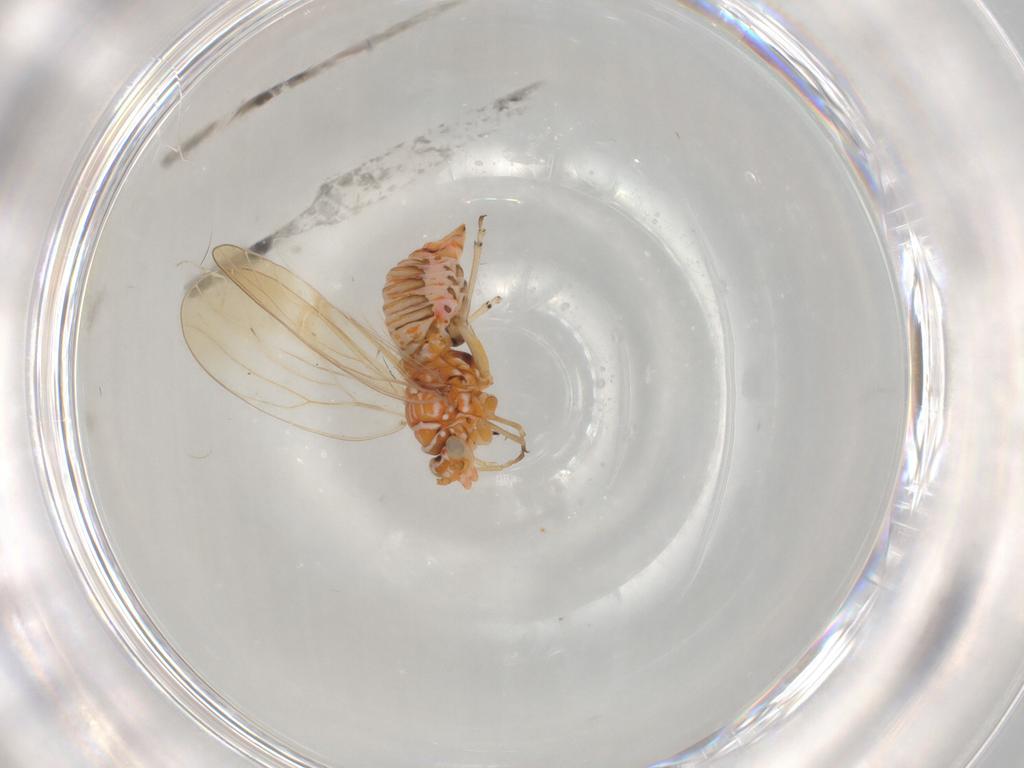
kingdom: Animalia
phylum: Arthropoda
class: Insecta
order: Hemiptera
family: Psyllidae
